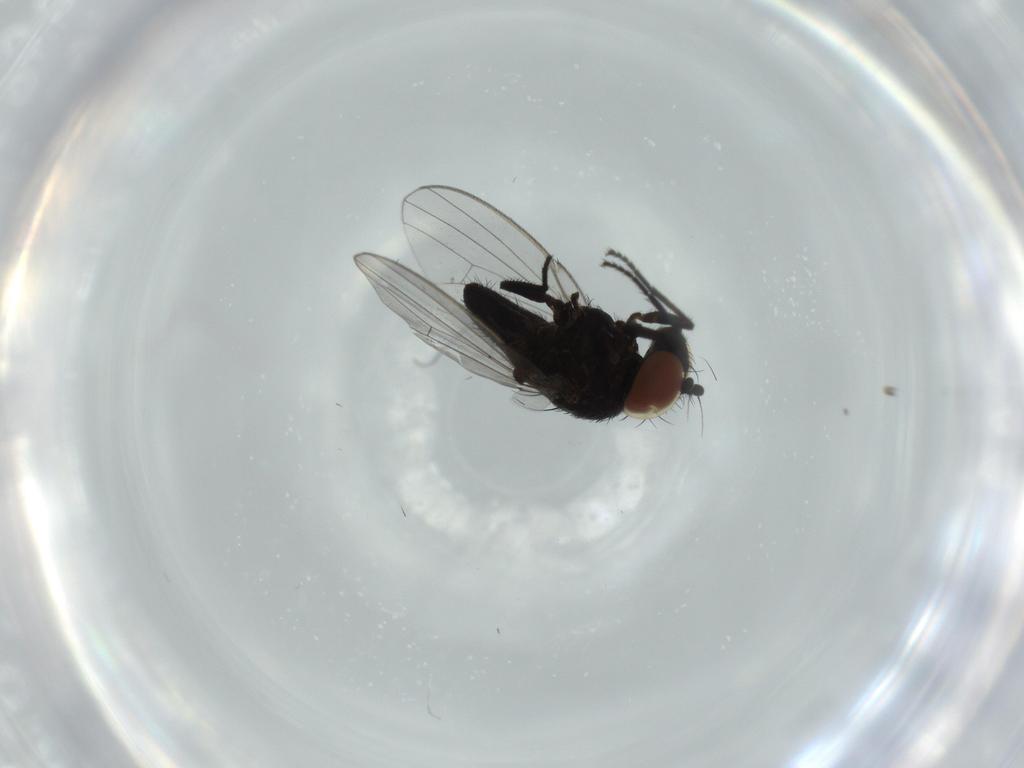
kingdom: Animalia
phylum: Arthropoda
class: Insecta
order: Diptera
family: Milichiidae
